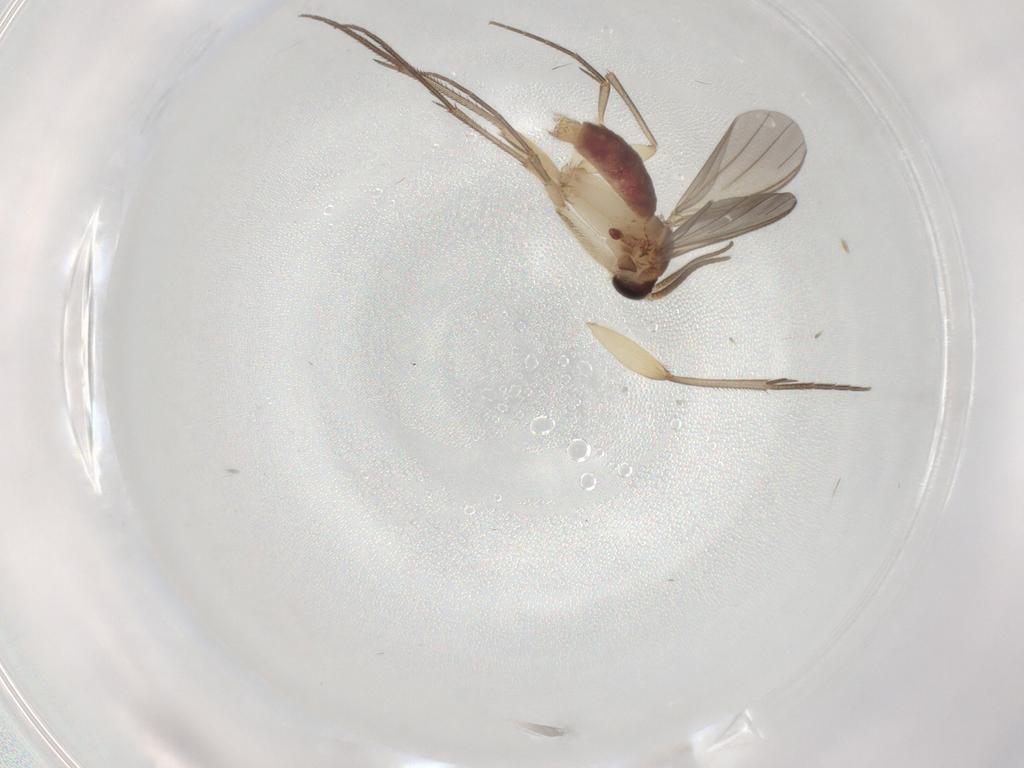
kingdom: Animalia
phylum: Arthropoda
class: Insecta
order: Diptera
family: Mycetophilidae
